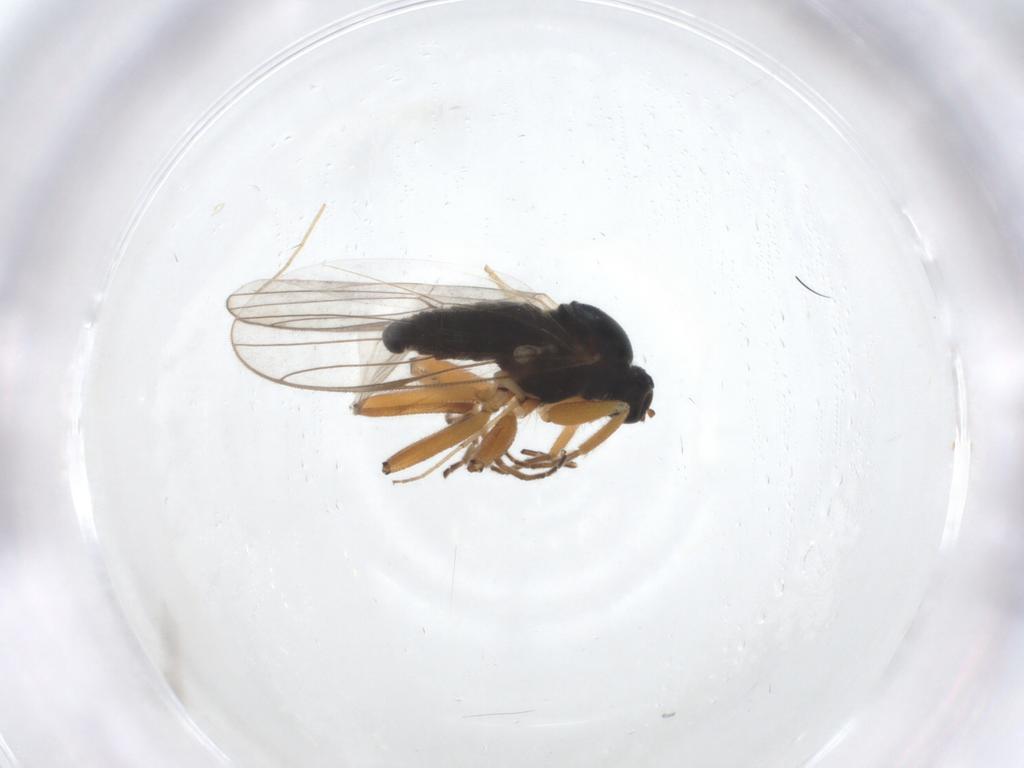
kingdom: Animalia
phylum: Arthropoda
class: Insecta
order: Diptera
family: Hybotidae
